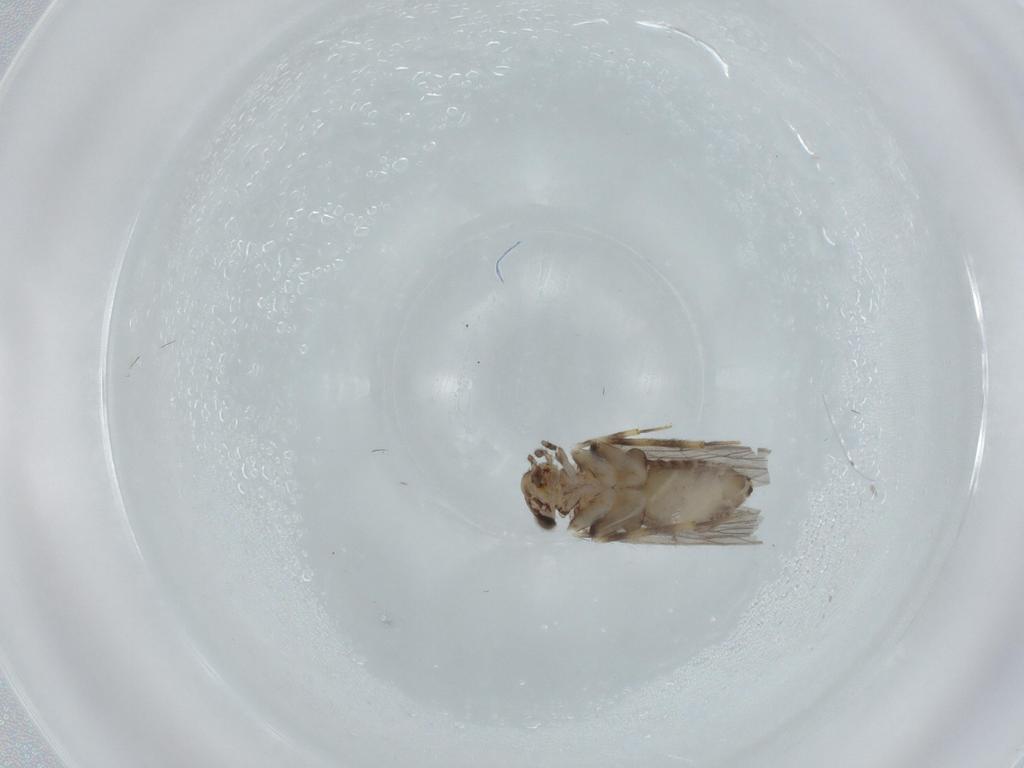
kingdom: Animalia
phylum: Arthropoda
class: Insecta
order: Psocodea
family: Lepidopsocidae
